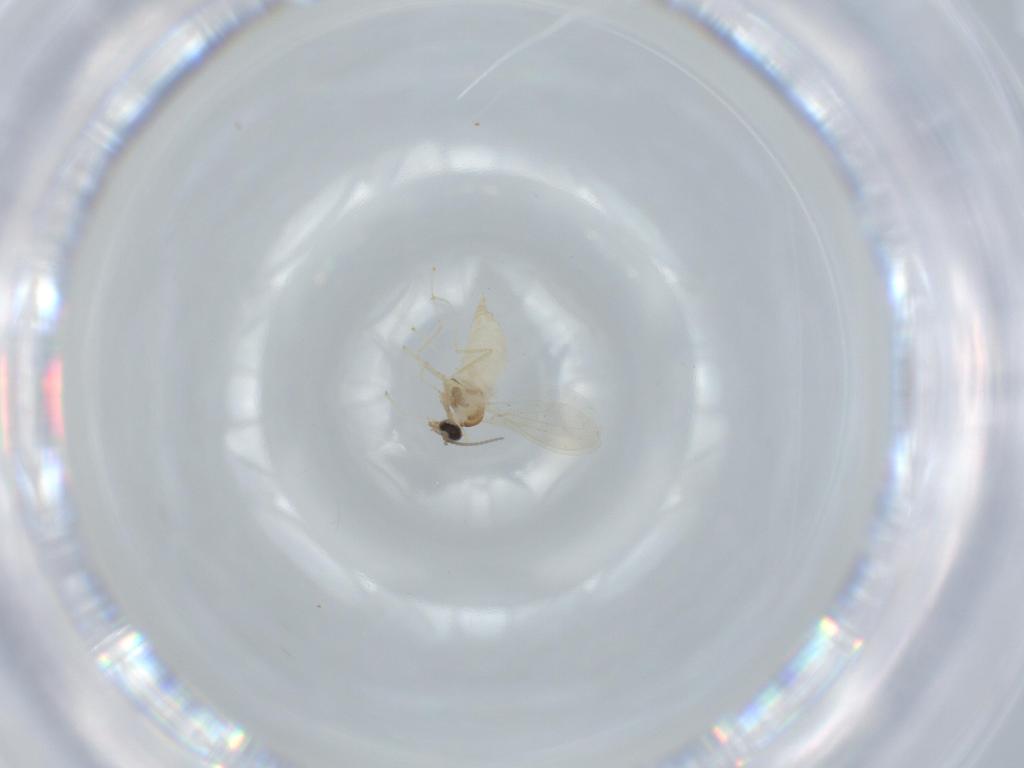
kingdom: Animalia
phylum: Arthropoda
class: Insecta
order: Diptera
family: Cecidomyiidae
